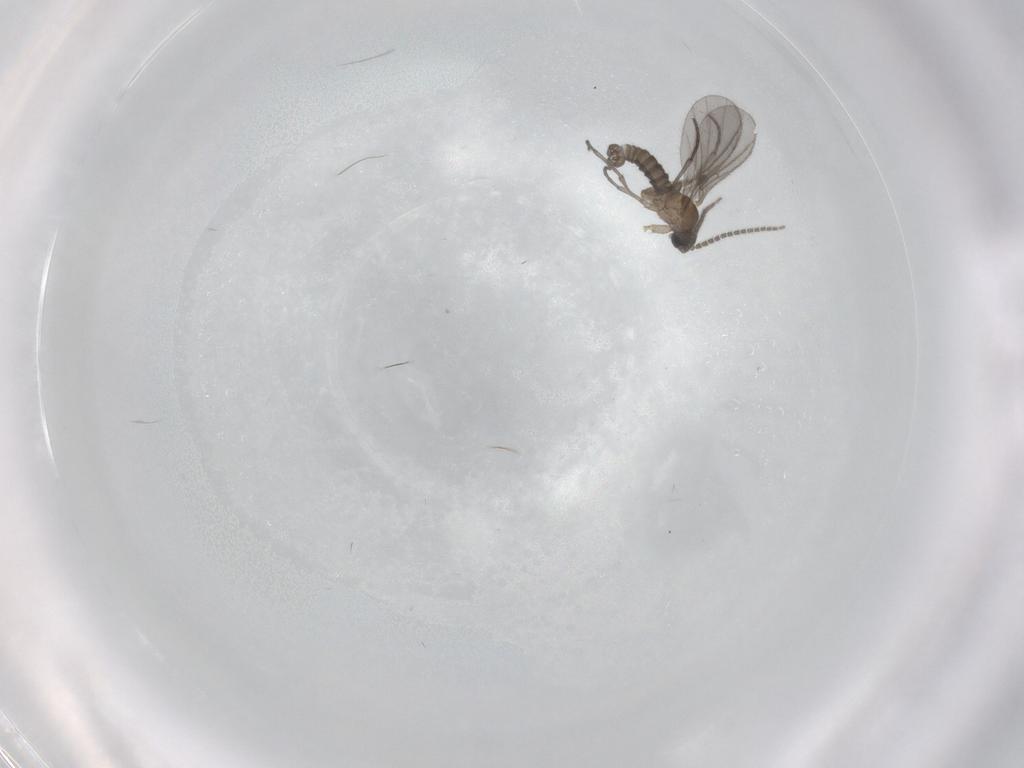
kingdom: Animalia
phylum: Arthropoda
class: Insecta
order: Diptera
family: Sciaridae
